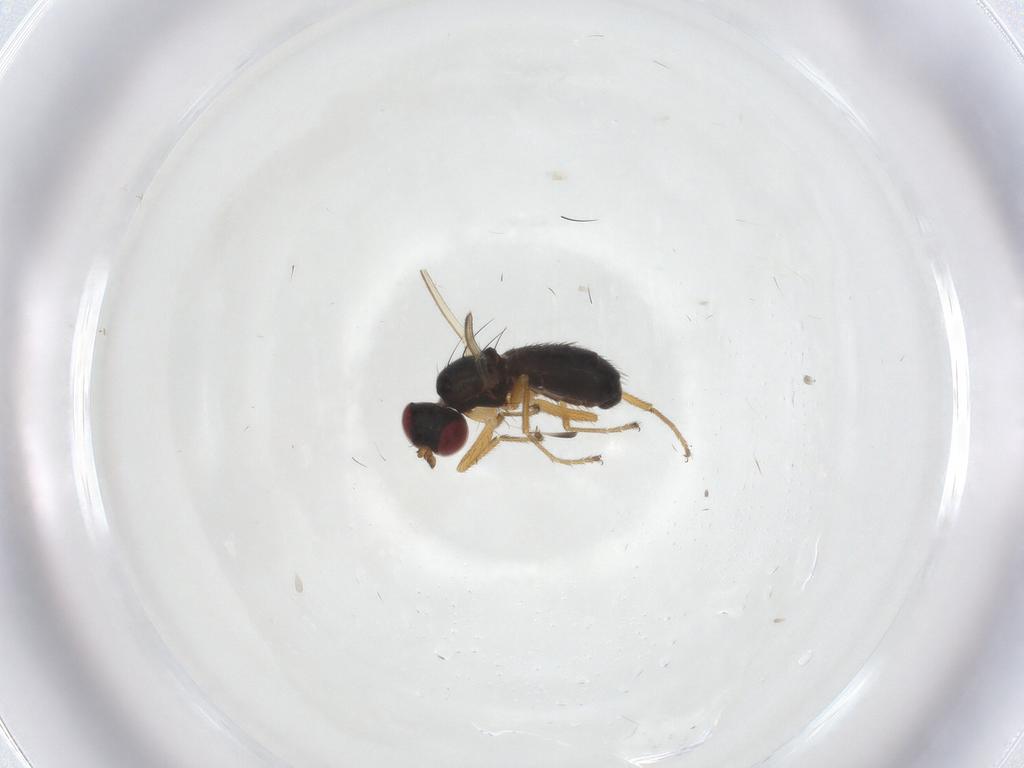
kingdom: Animalia
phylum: Arthropoda
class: Insecta
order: Diptera
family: Anthomyzidae
